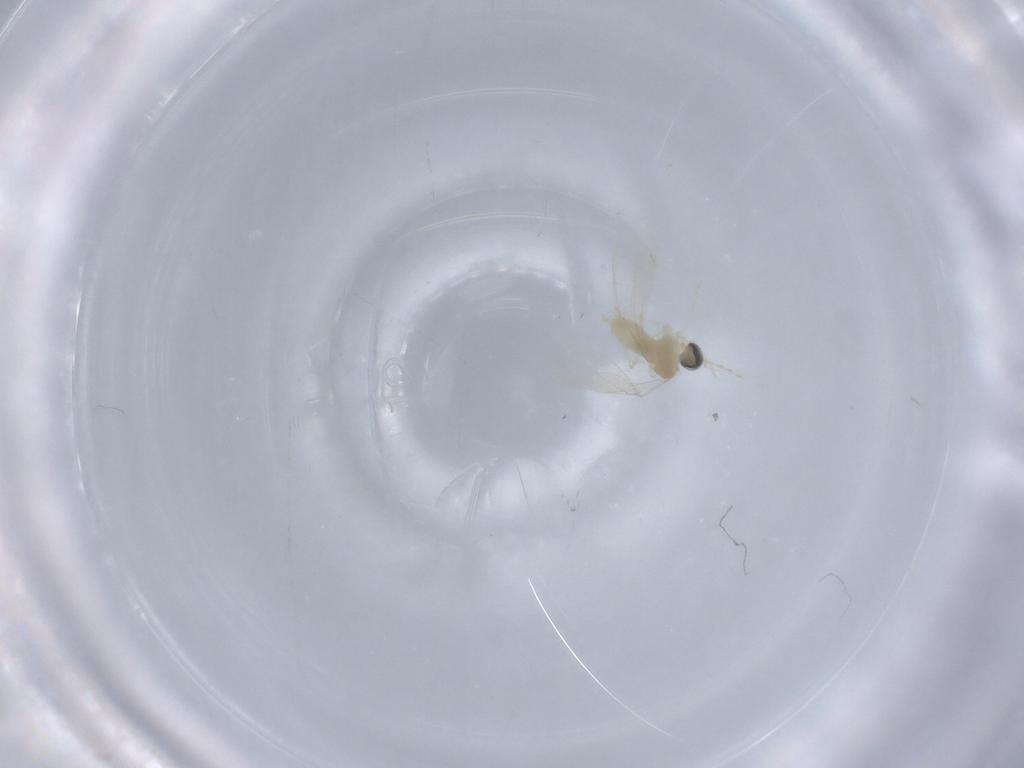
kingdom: Animalia
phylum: Arthropoda
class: Insecta
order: Diptera
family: Cecidomyiidae
